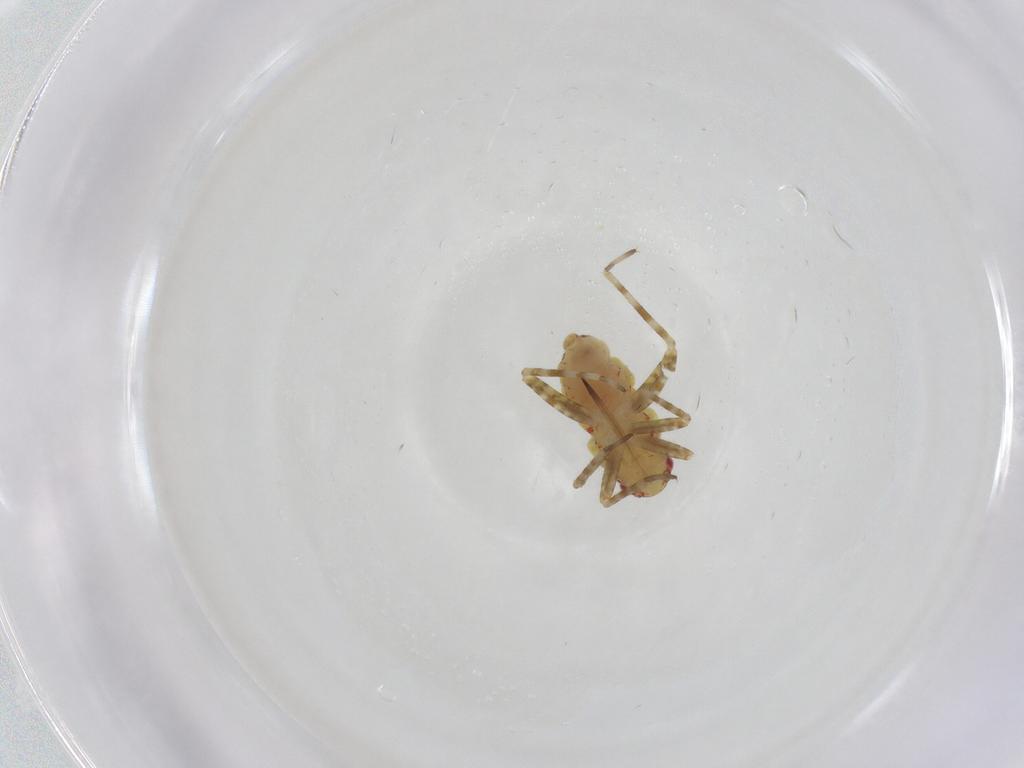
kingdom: Animalia
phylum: Arthropoda
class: Insecta
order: Hemiptera
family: Miridae
